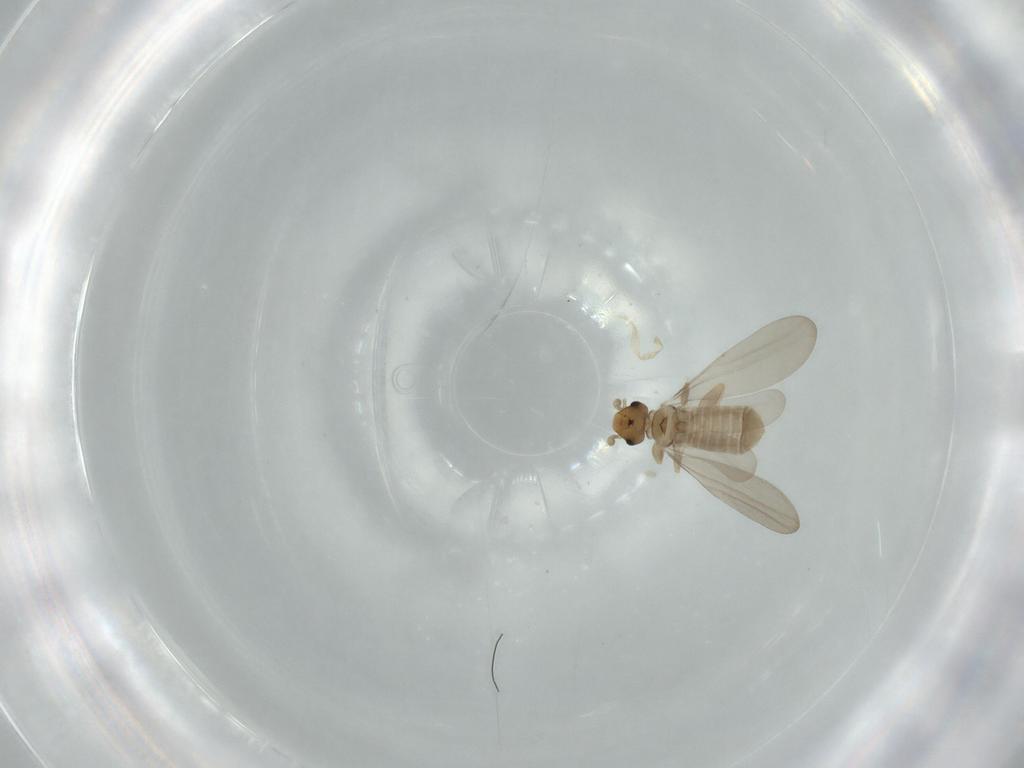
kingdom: Animalia
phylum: Arthropoda
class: Insecta
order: Psocodea
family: Liposcelididae
